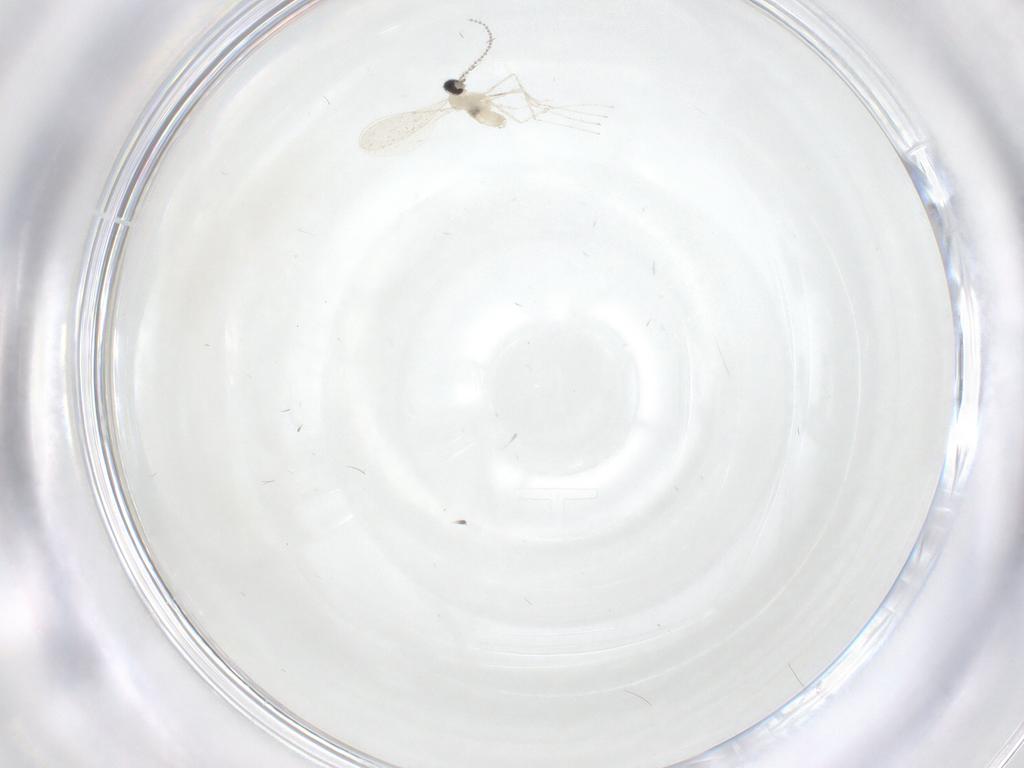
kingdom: Animalia
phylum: Arthropoda
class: Insecta
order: Diptera
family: Cecidomyiidae
